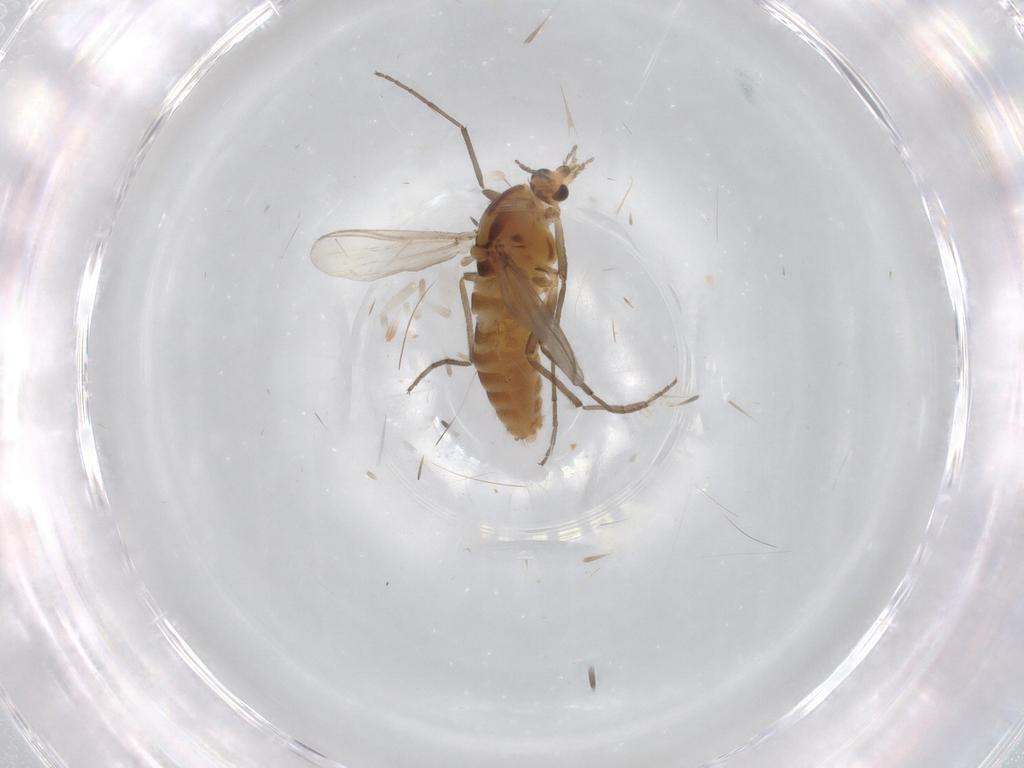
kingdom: Animalia
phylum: Arthropoda
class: Insecta
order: Diptera
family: Chironomidae
